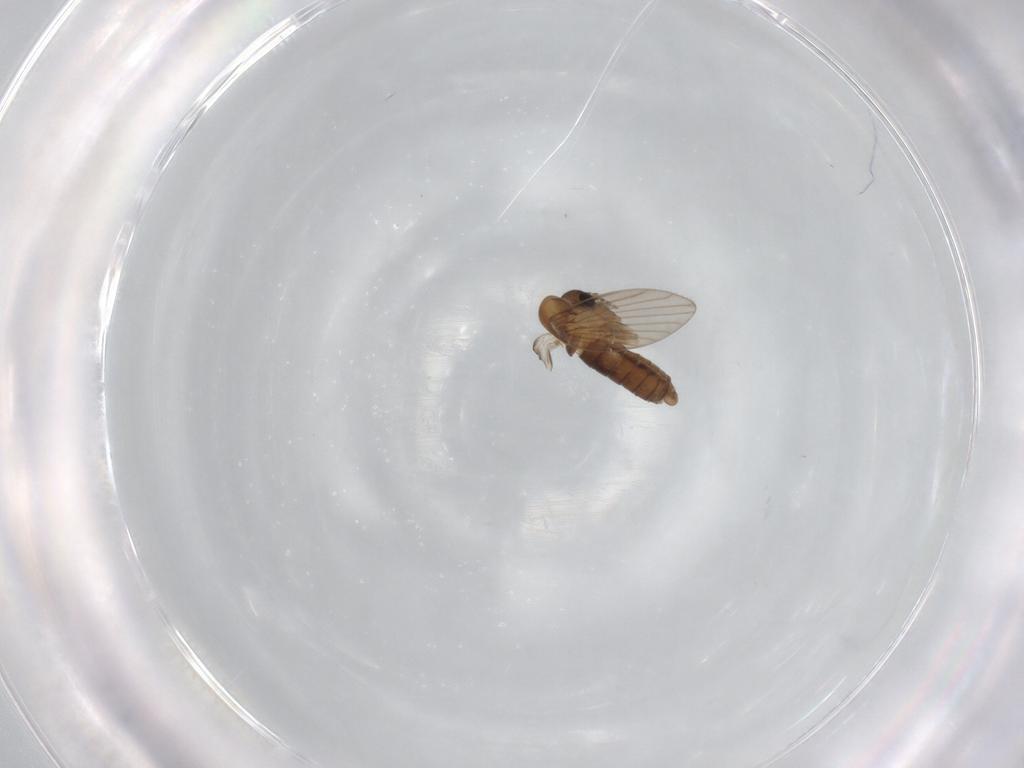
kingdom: Animalia
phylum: Arthropoda
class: Insecta
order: Diptera
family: Psychodidae
